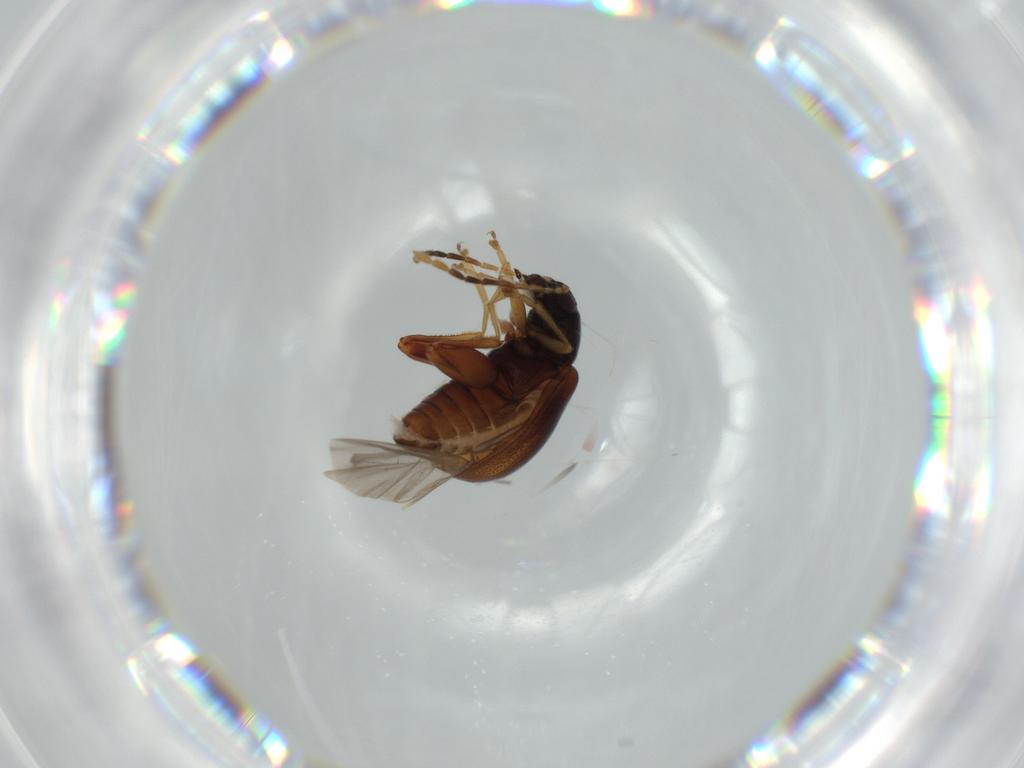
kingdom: Animalia
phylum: Arthropoda
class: Insecta
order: Coleoptera
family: Chrysomelidae
